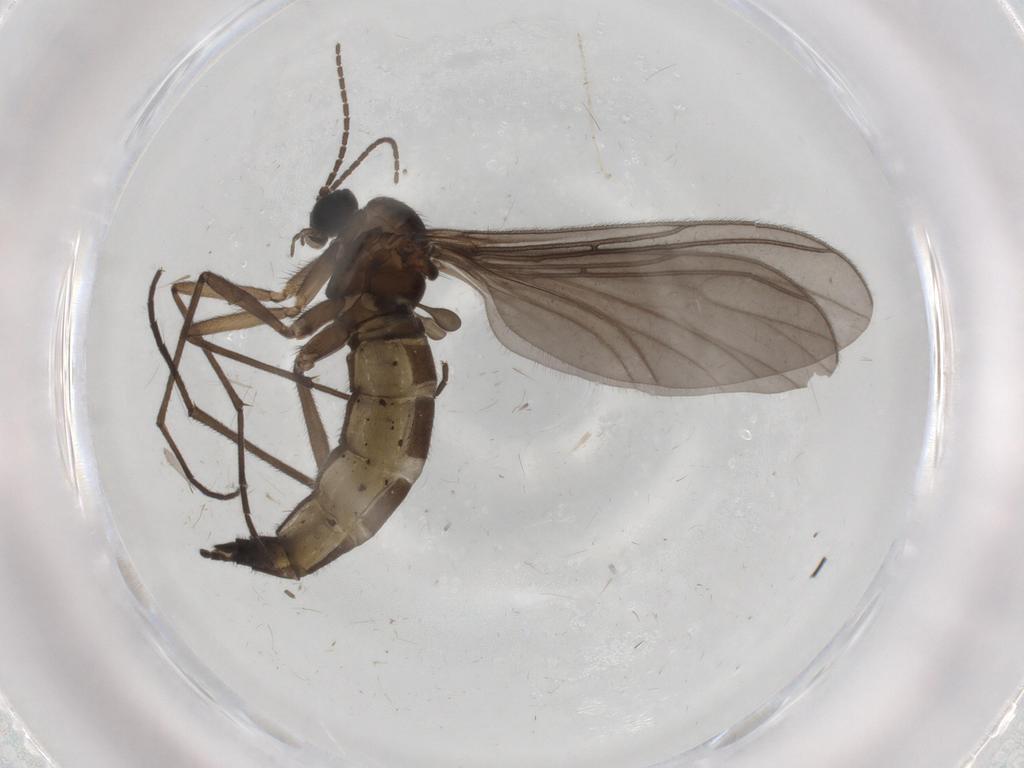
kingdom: Animalia
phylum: Arthropoda
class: Insecta
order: Diptera
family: Sciaridae
